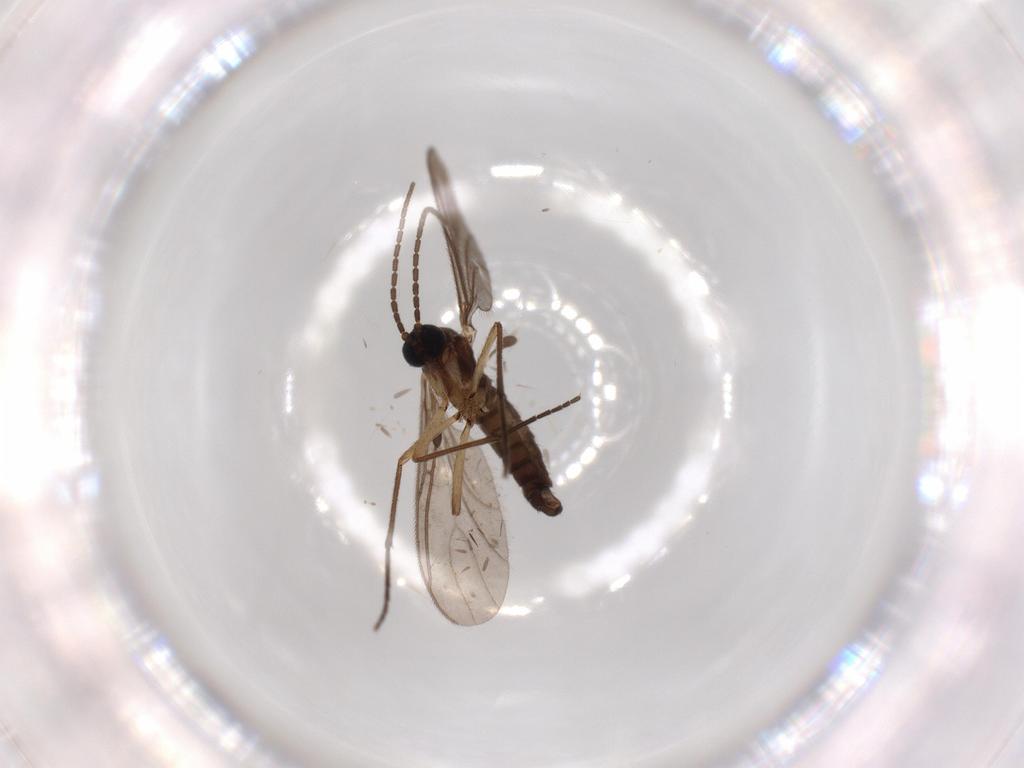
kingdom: Animalia
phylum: Arthropoda
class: Insecta
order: Diptera
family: Sciaridae
